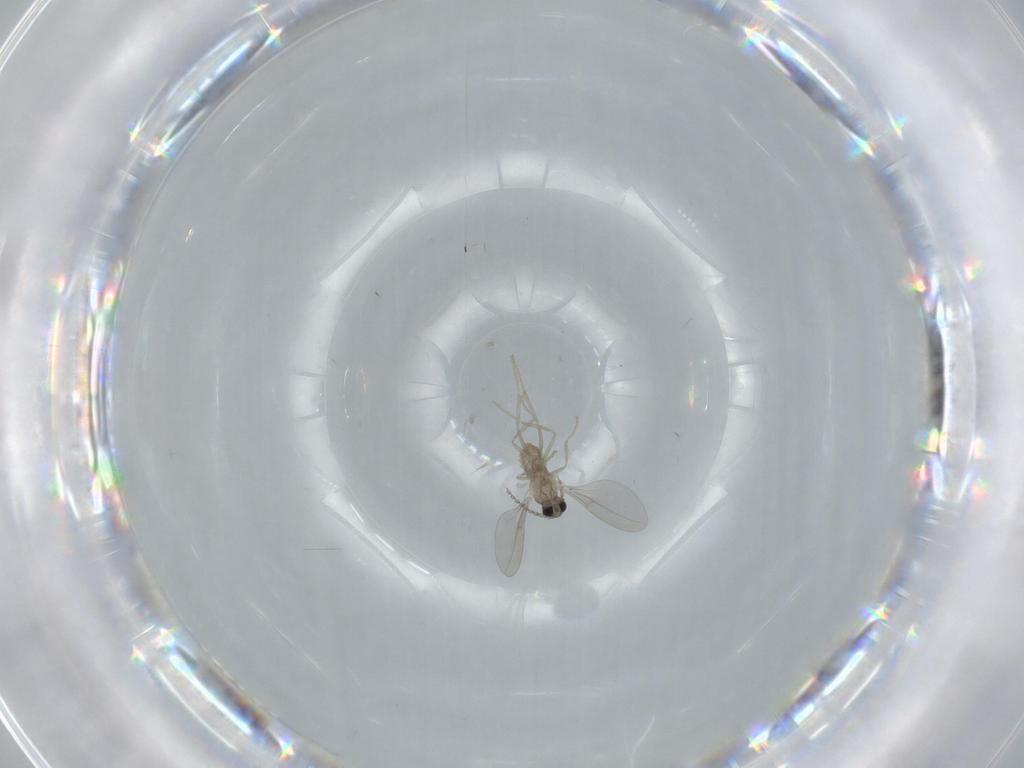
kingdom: Animalia
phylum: Arthropoda
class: Insecta
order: Diptera
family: Cecidomyiidae
